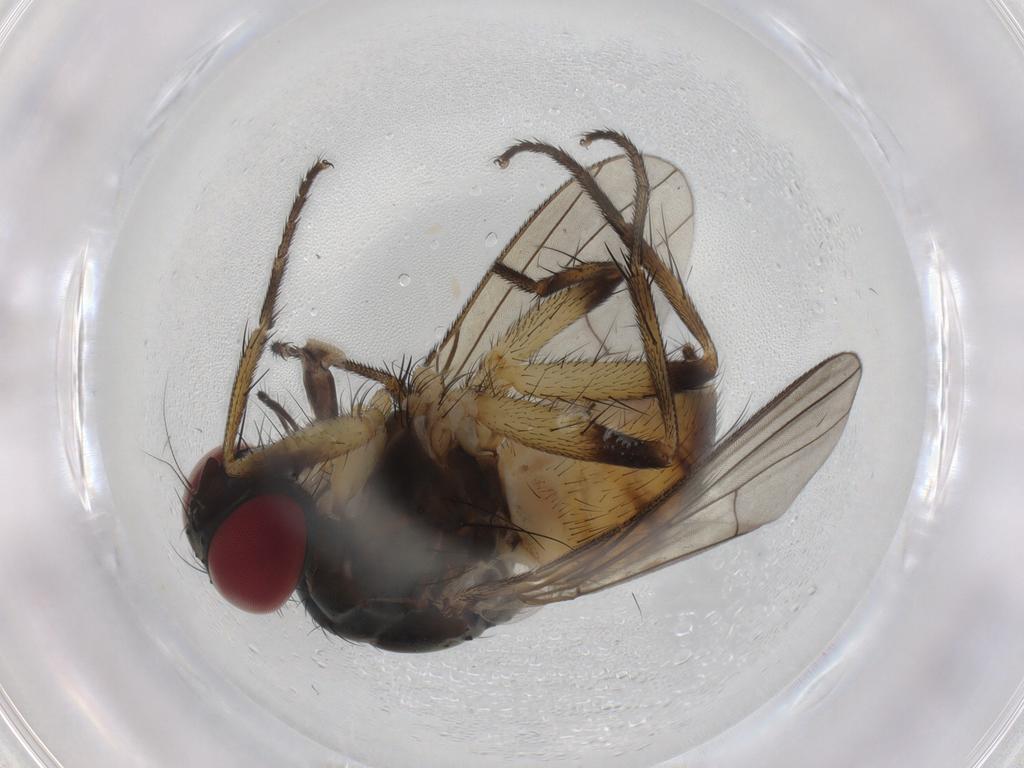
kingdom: Animalia
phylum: Arthropoda
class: Insecta
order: Diptera
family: Muscidae
